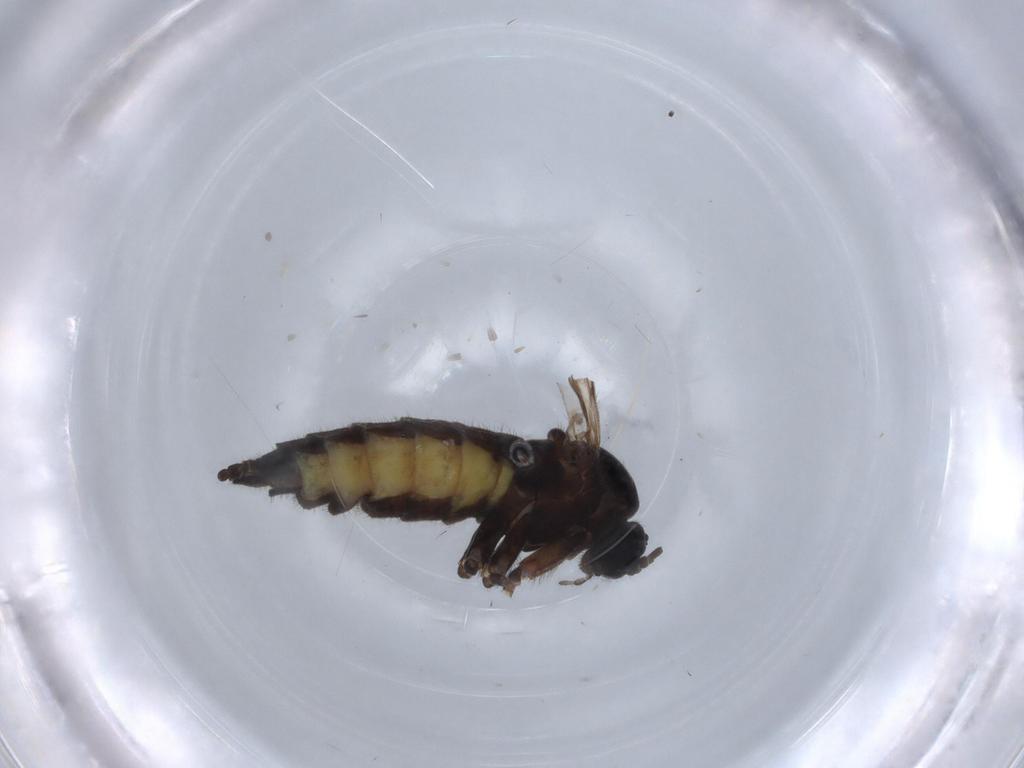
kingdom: Animalia
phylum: Arthropoda
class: Insecta
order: Diptera
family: Sciaridae
